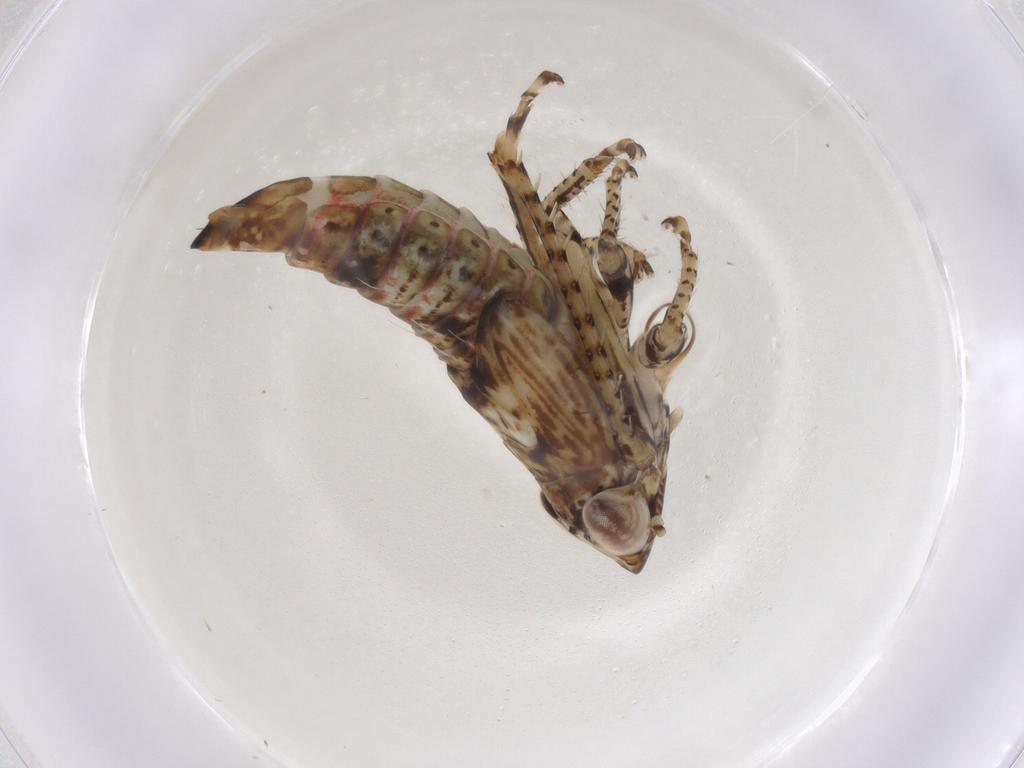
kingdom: Animalia
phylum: Arthropoda
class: Insecta
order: Hemiptera
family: Cicadellidae
